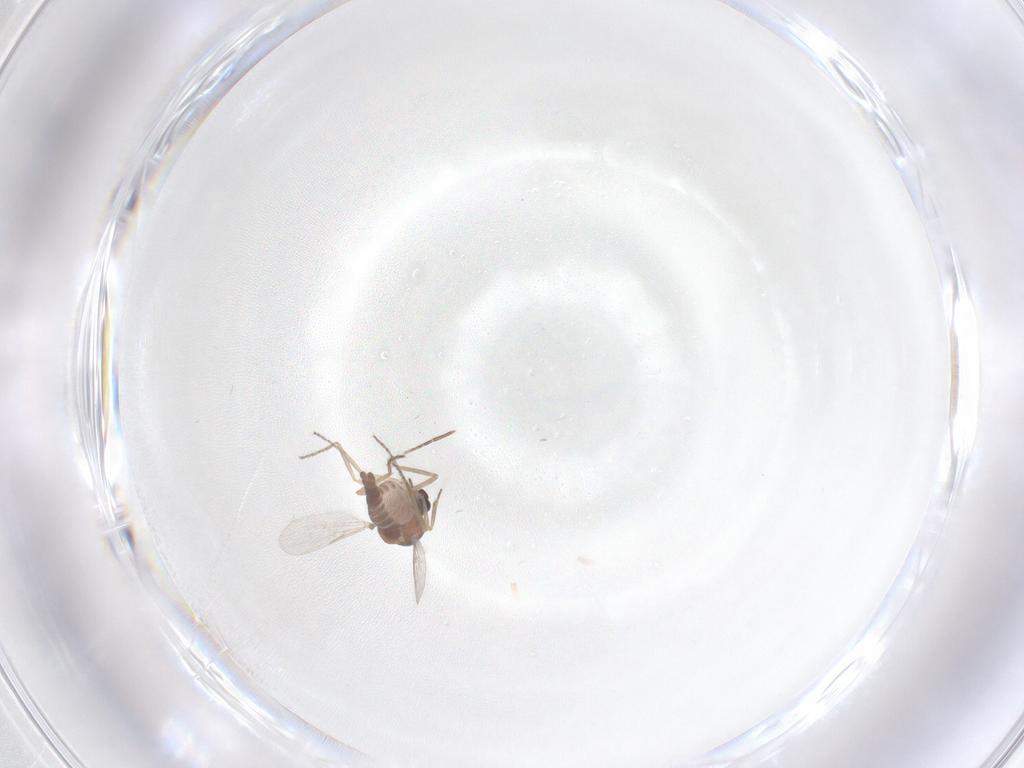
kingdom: Animalia
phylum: Arthropoda
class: Insecta
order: Diptera
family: Ceratopogonidae
